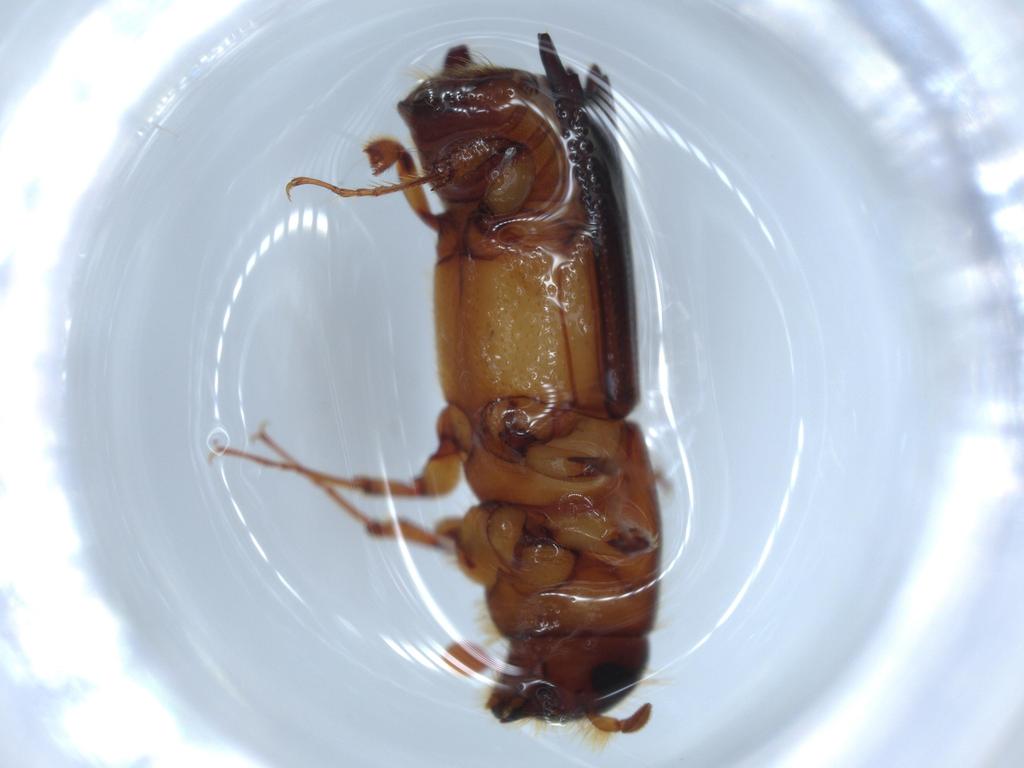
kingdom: Animalia
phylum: Arthropoda
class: Insecta
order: Coleoptera
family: Curculionidae
